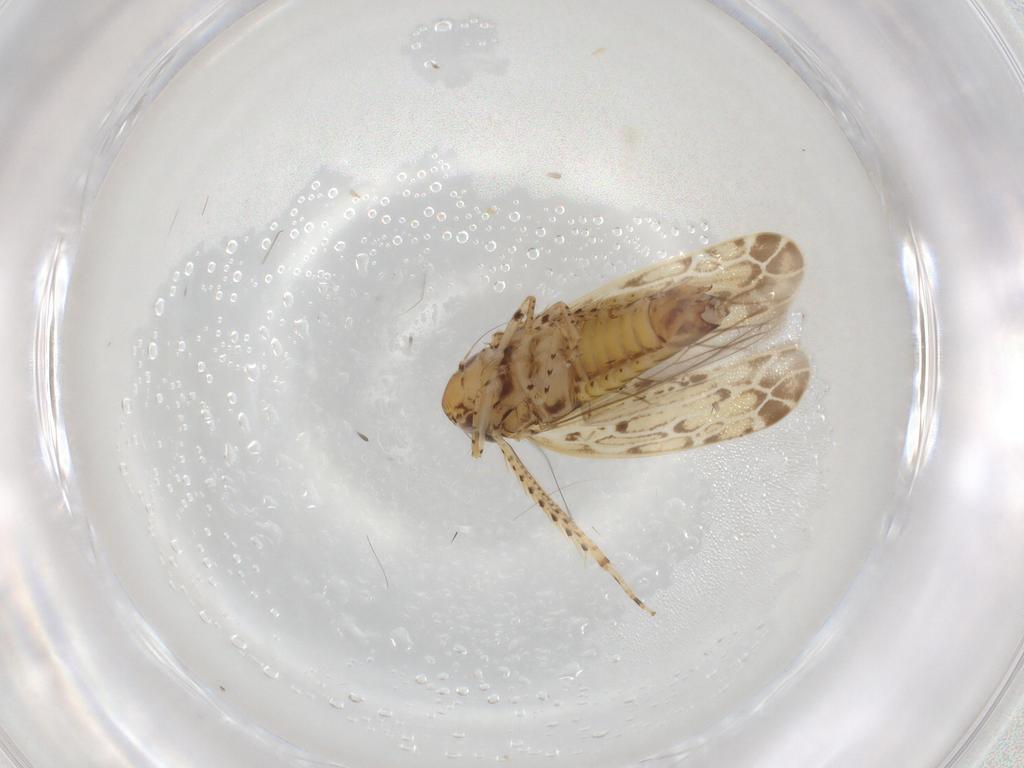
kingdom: Animalia
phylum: Arthropoda
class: Insecta
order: Hemiptera
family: Cicadellidae
